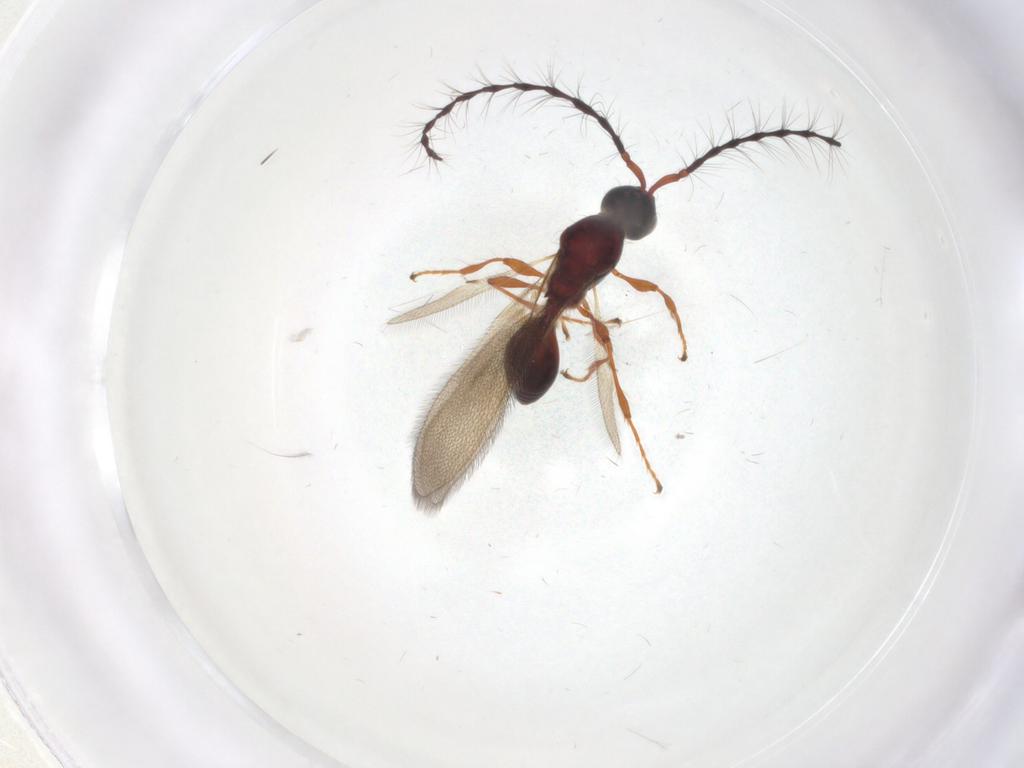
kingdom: Animalia
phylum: Arthropoda
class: Insecta
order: Hymenoptera
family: Diapriidae
